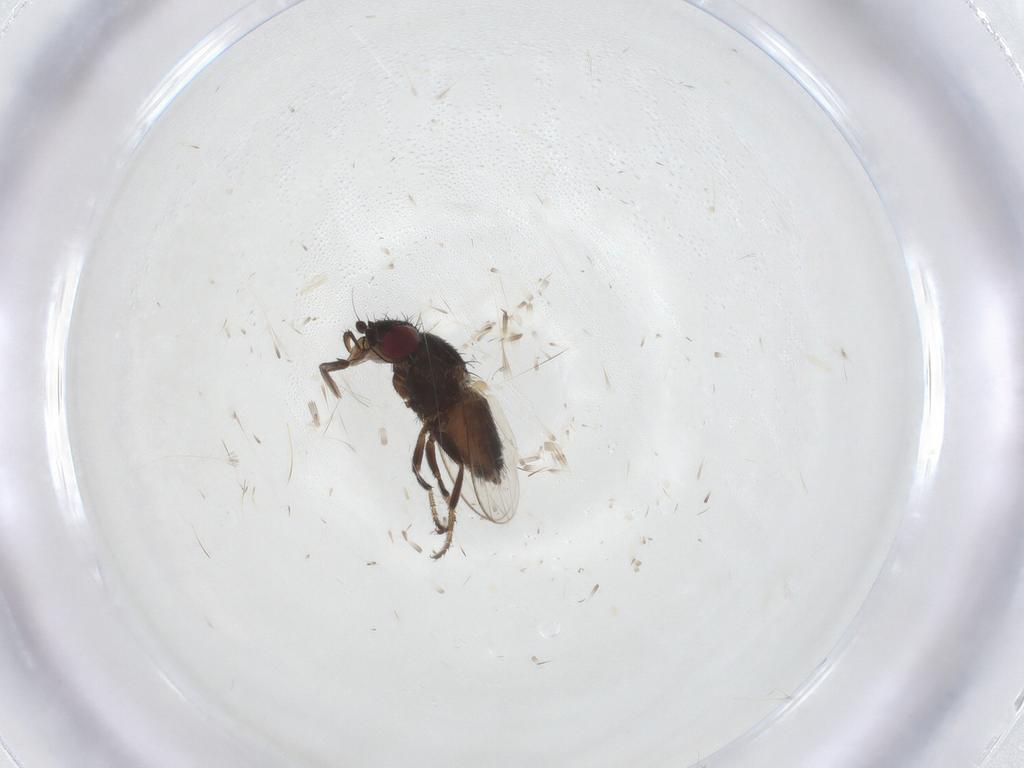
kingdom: Animalia
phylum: Arthropoda
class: Insecta
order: Diptera
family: Milichiidae
